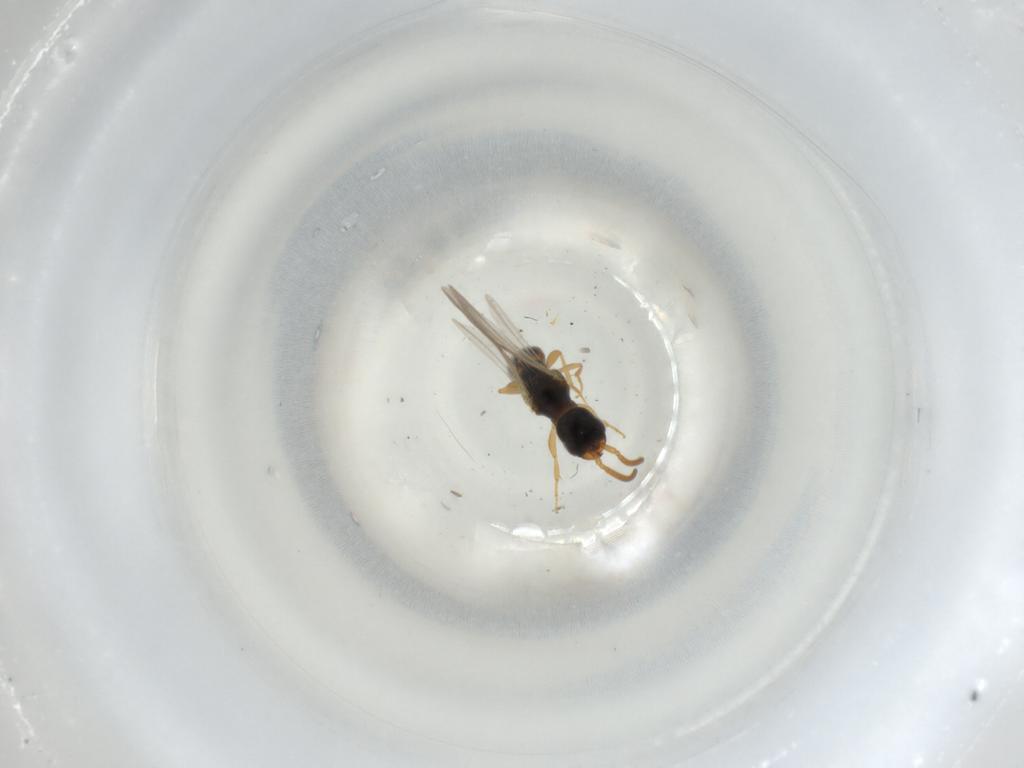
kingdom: Animalia
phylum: Arthropoda
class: Insecta
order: Hymenoptera
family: Bethylidae
